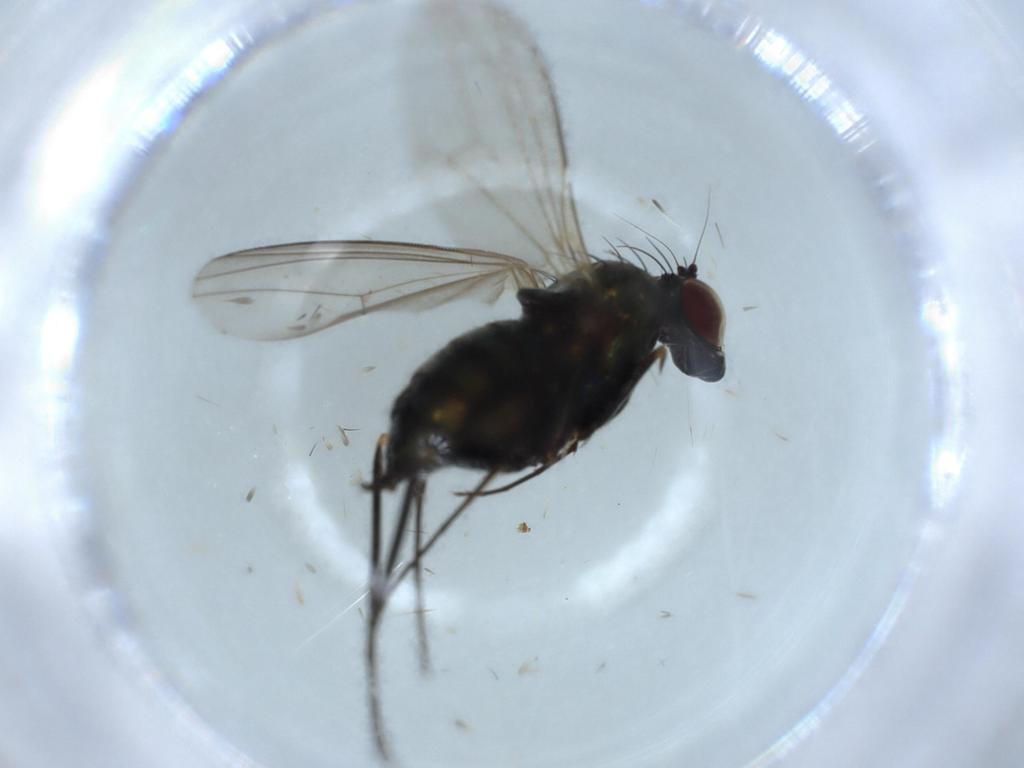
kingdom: Animalia
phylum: Arthropoda
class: Insecta
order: Diptera
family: Dolichopodidae
